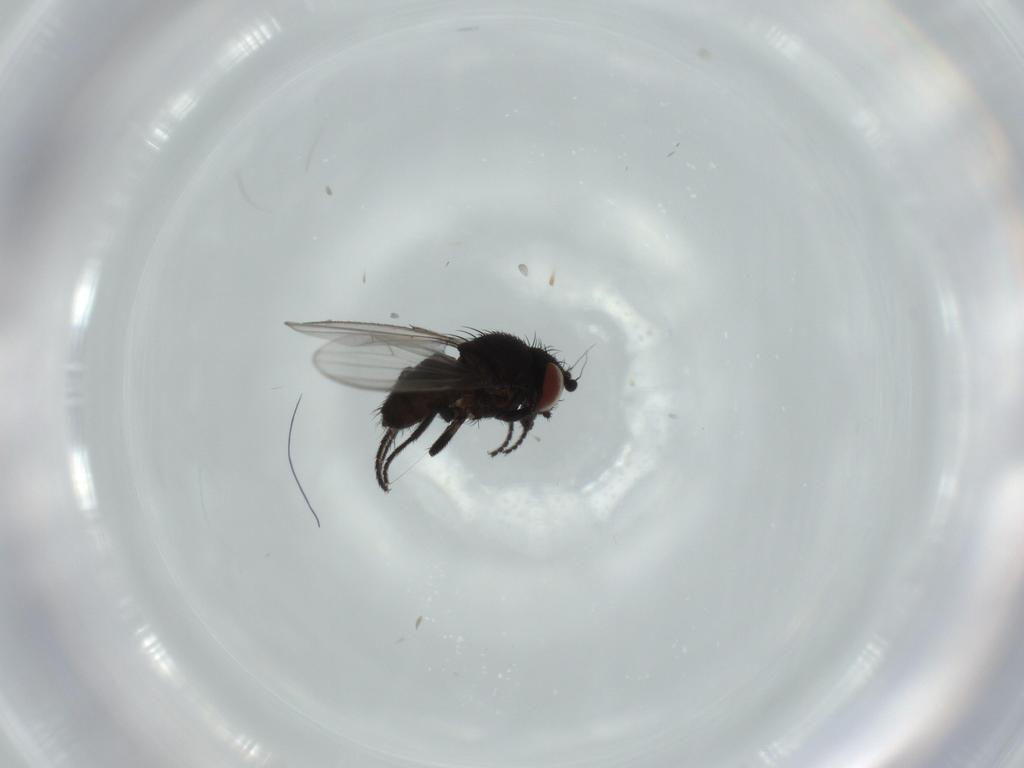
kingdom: Animalia
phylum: Arthropoda
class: Insecta
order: Diptera
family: Milichiidae
